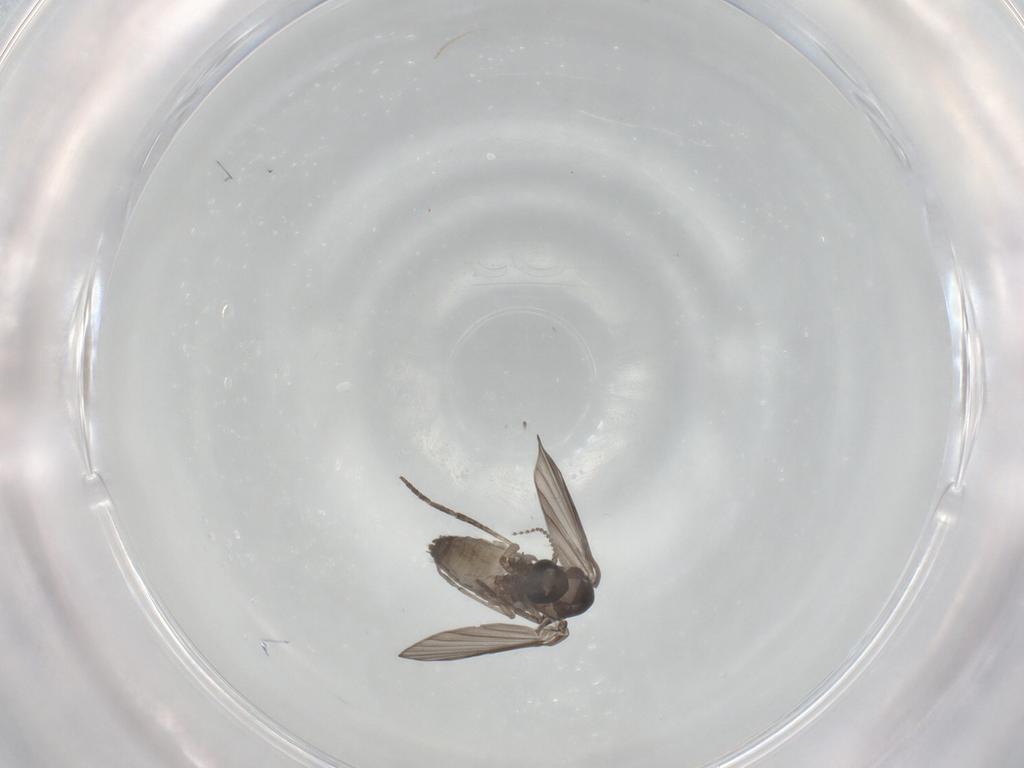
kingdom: Animalia
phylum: Arthropoda
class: Insecta
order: Diptera
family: Psychodidae
